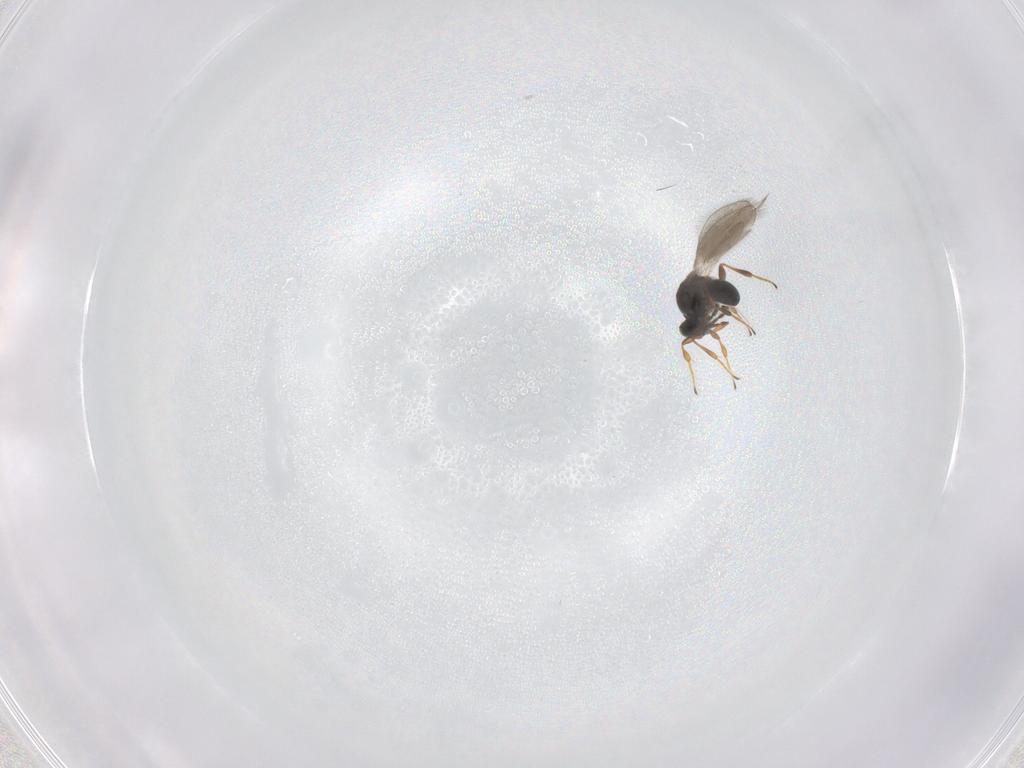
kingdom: Animalia
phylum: Arthropoda
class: Insecta
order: Hymenoptera
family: Platygastridae
